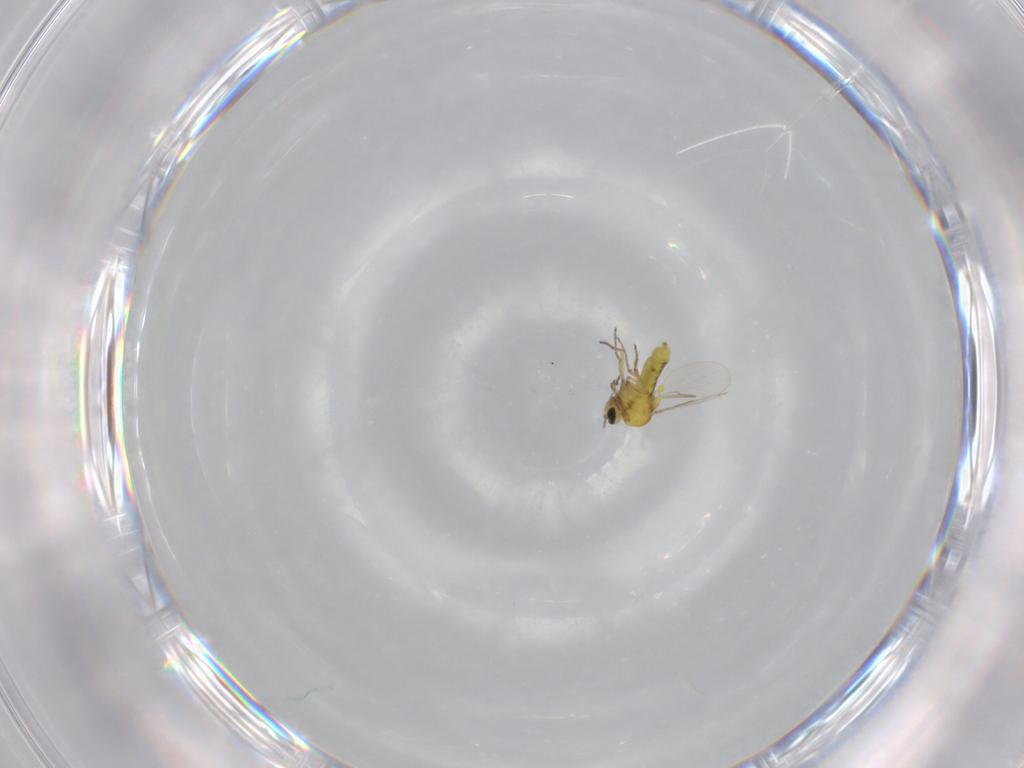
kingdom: Animalia
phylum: Arthropoda
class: Insecta
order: Diptera
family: Ceratopogonidae
